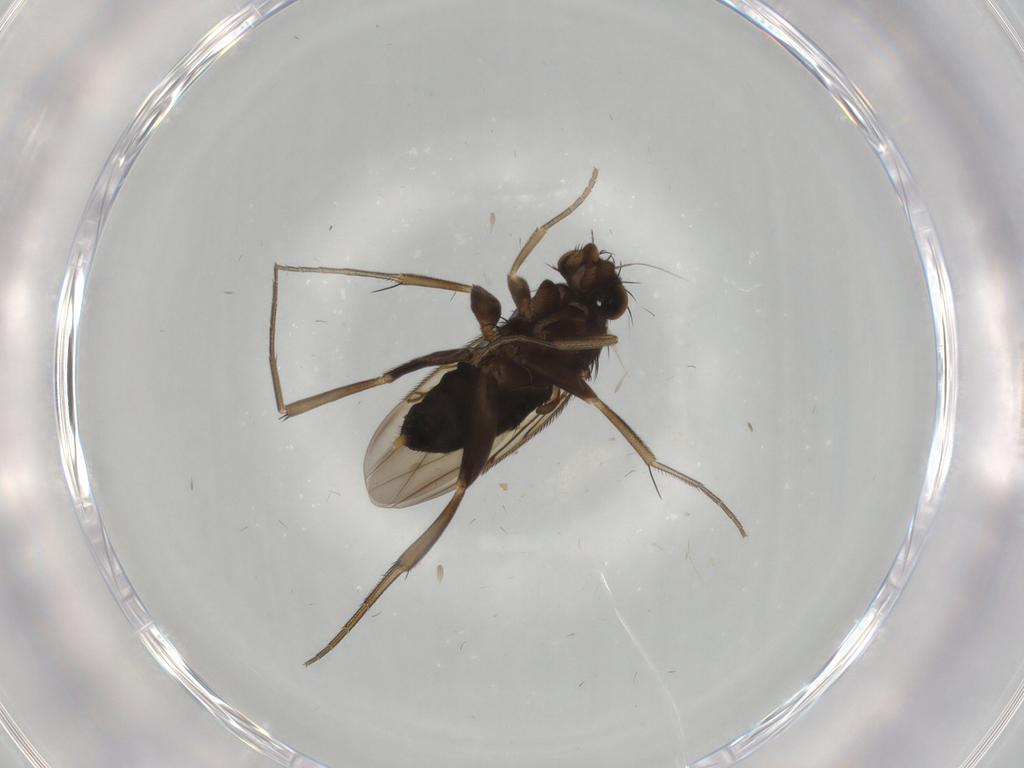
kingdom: Animalia
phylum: Arthropoda
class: Insecta
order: Diptera
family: Phoridae
